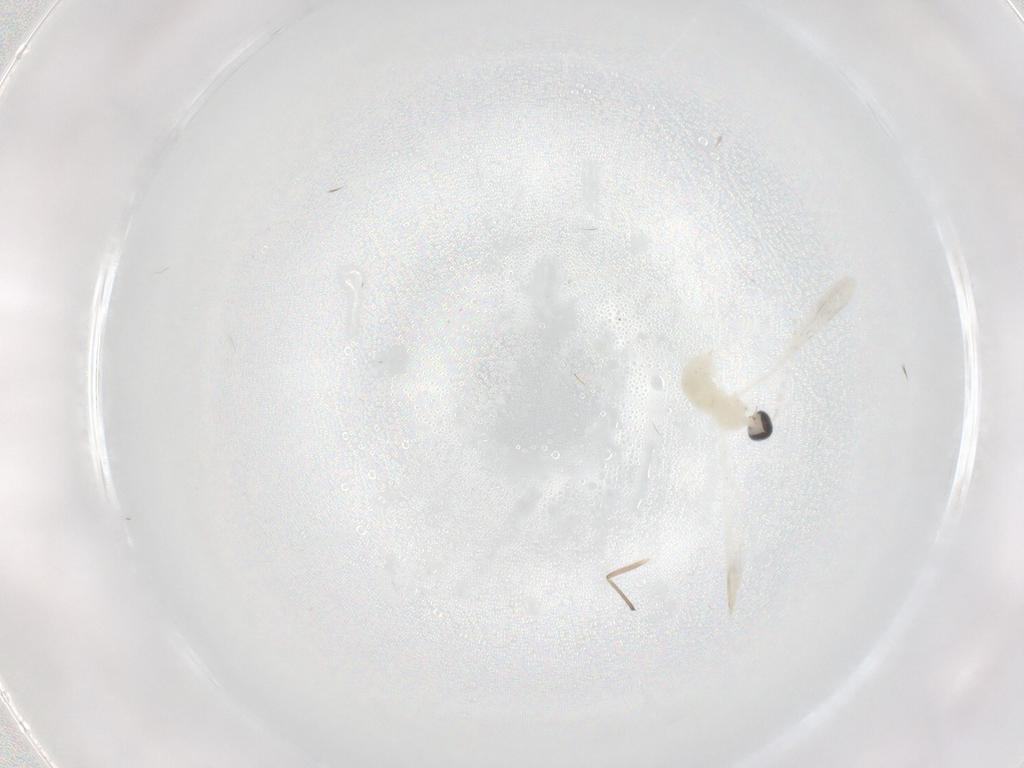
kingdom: Animalia
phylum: Arthropoda
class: Insecta
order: Diptera
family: Cecidomyiidae
